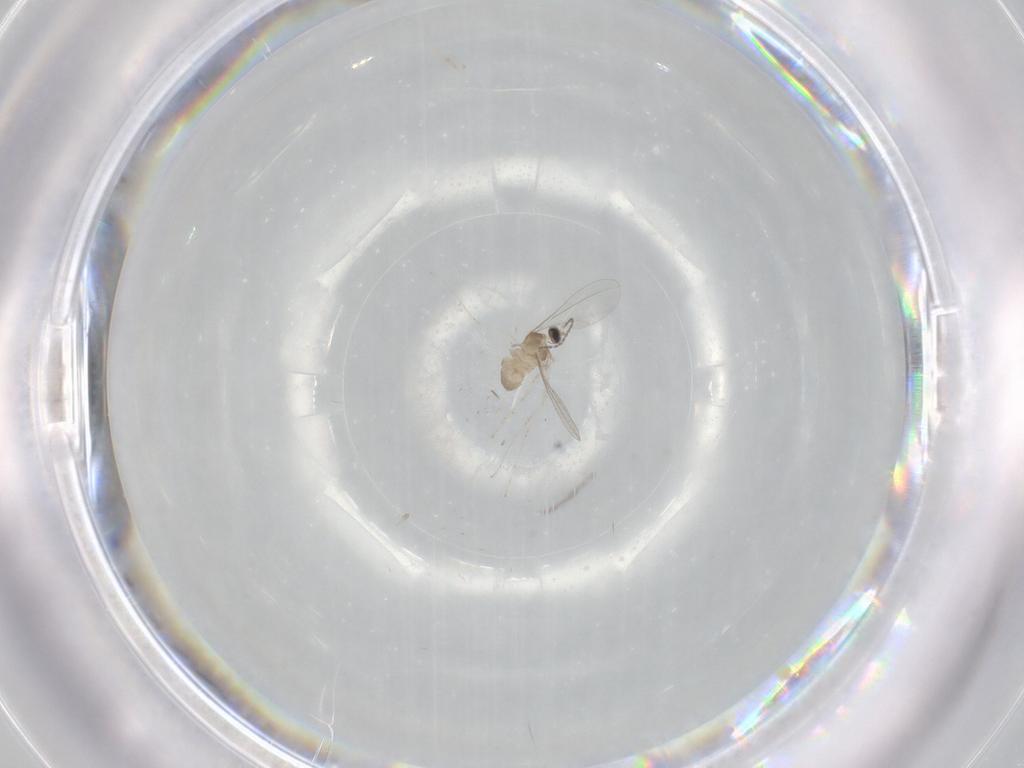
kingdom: Animalia
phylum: Arthropoda
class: Insecta
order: Diptera
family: Cecidomyiidae
